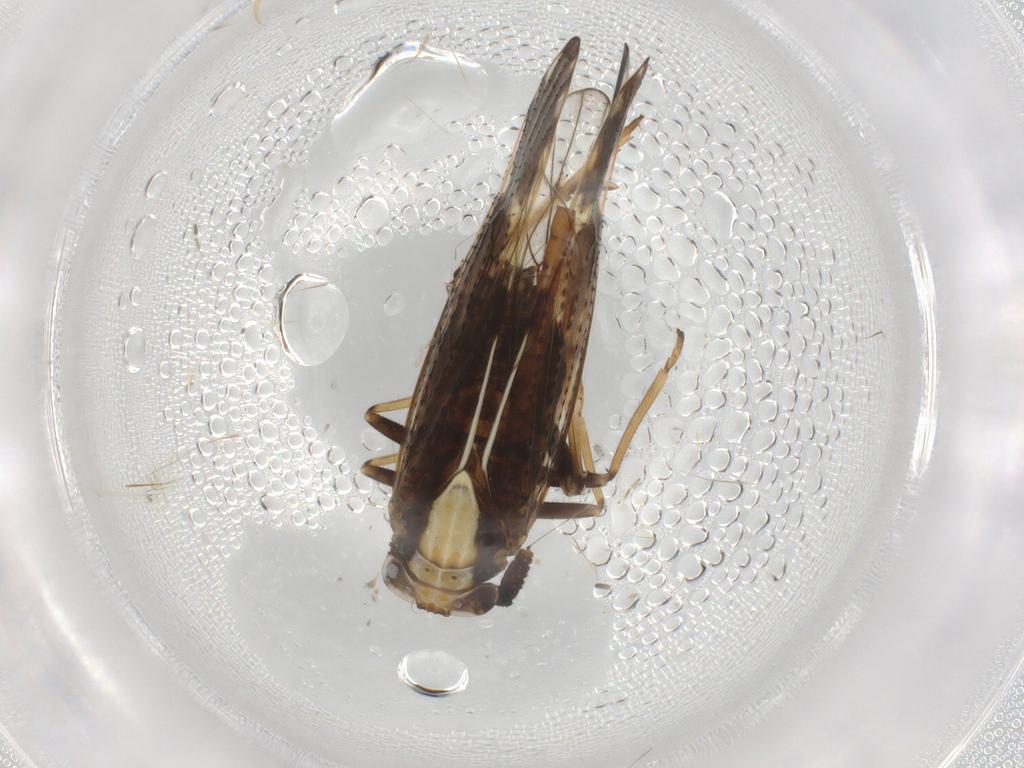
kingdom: Animalia
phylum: Arthropoda
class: Insecta
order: Hemiptera
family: Delphacidae
